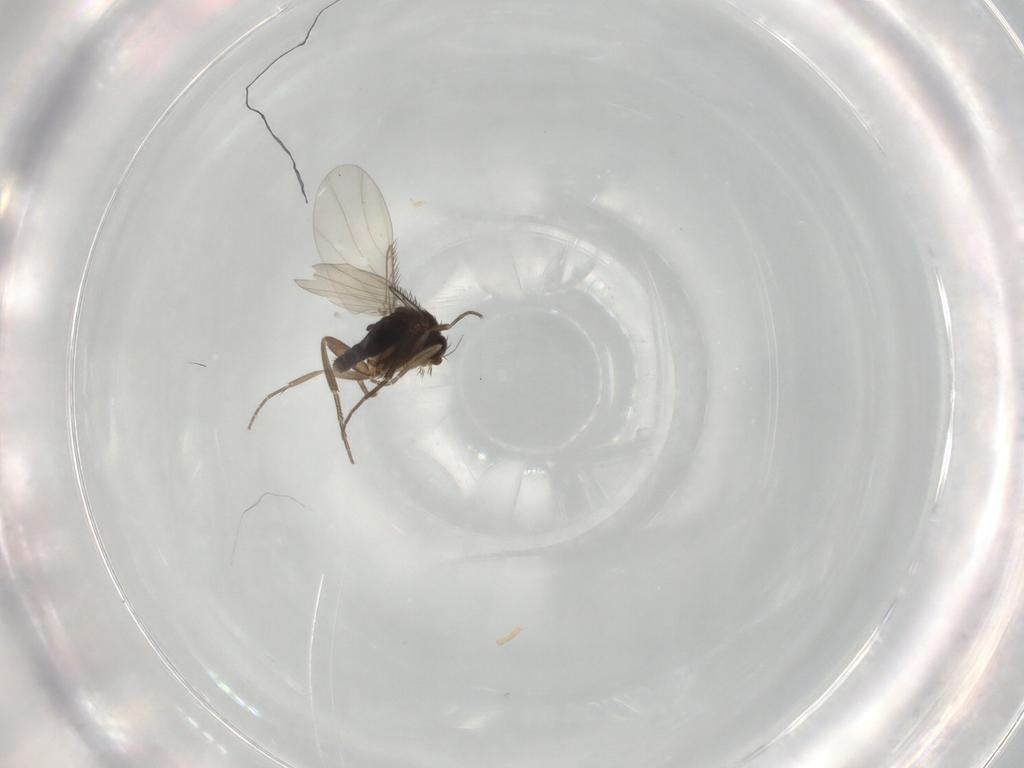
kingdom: Animalia
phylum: Arthropoda
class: Insecta
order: Diptera
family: Phoridae
